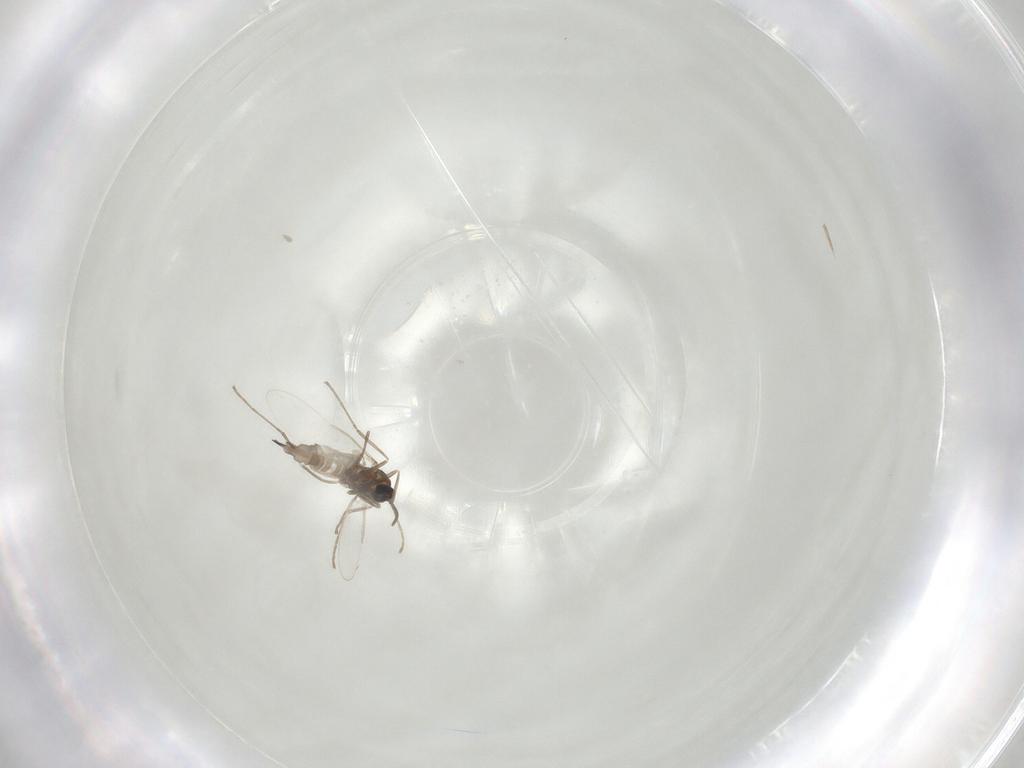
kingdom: Animalia
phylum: Arthropoda
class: Insecta
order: Diptera
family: Cecidomyiidae
